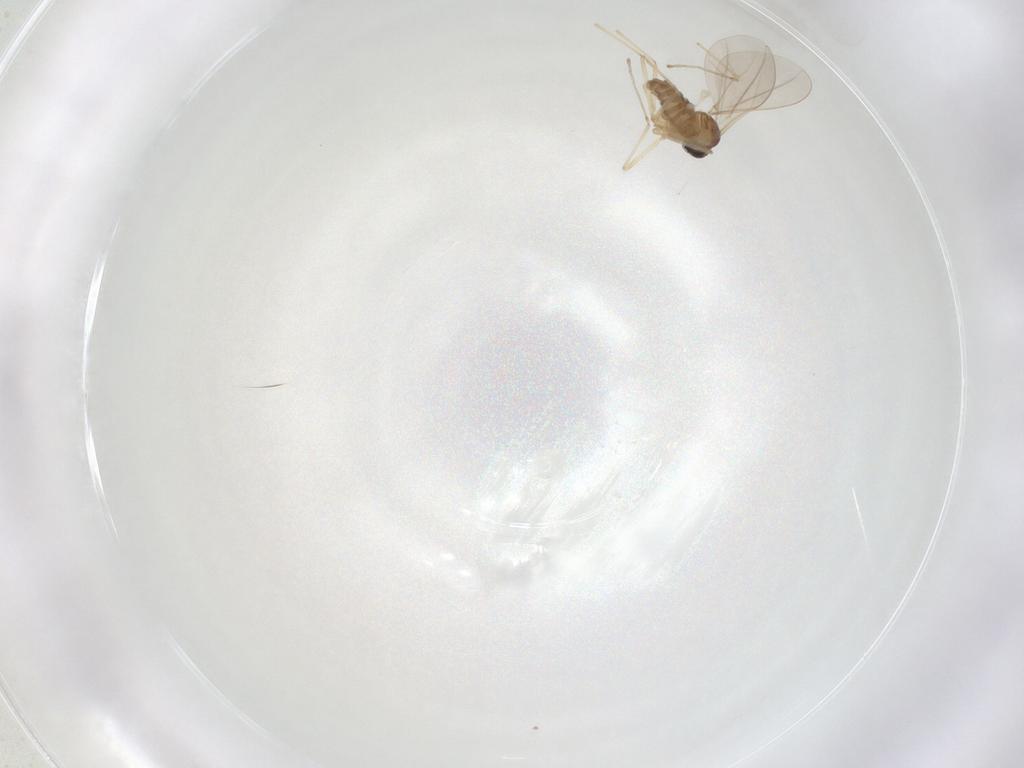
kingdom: Animalia
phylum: Arthropoda
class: Insecta
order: Diptera
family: Cecidomyiidae
